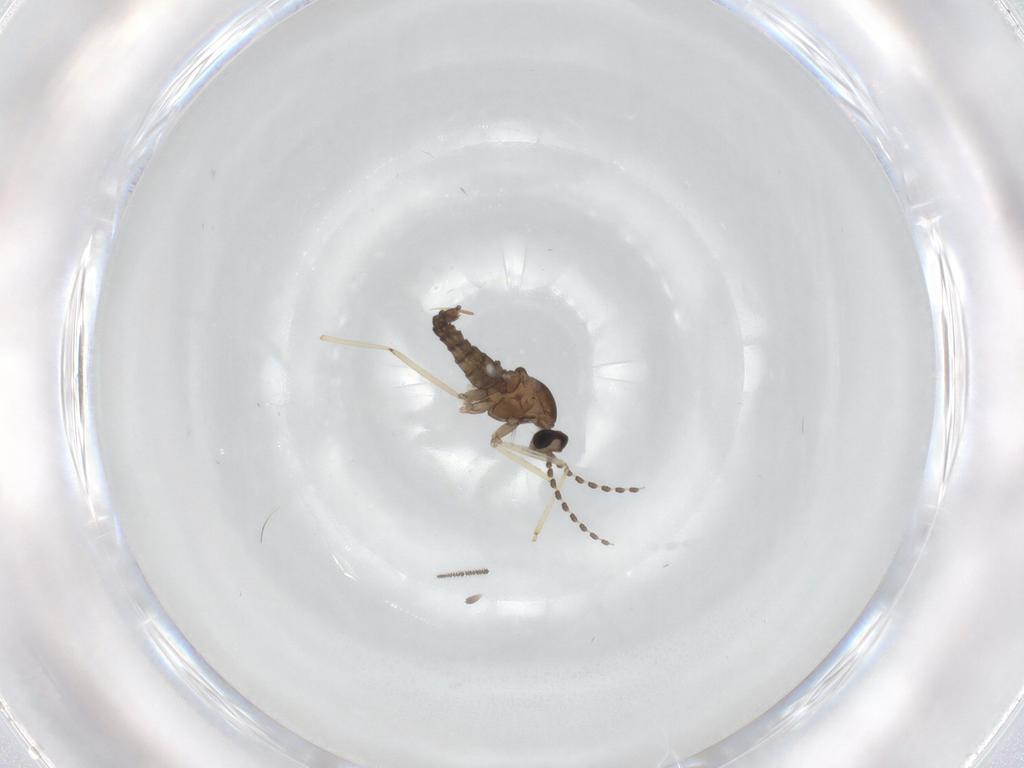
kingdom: Animalia
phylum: Arthropoda
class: Insecta
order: Diptera
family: Cecidomyiidae
